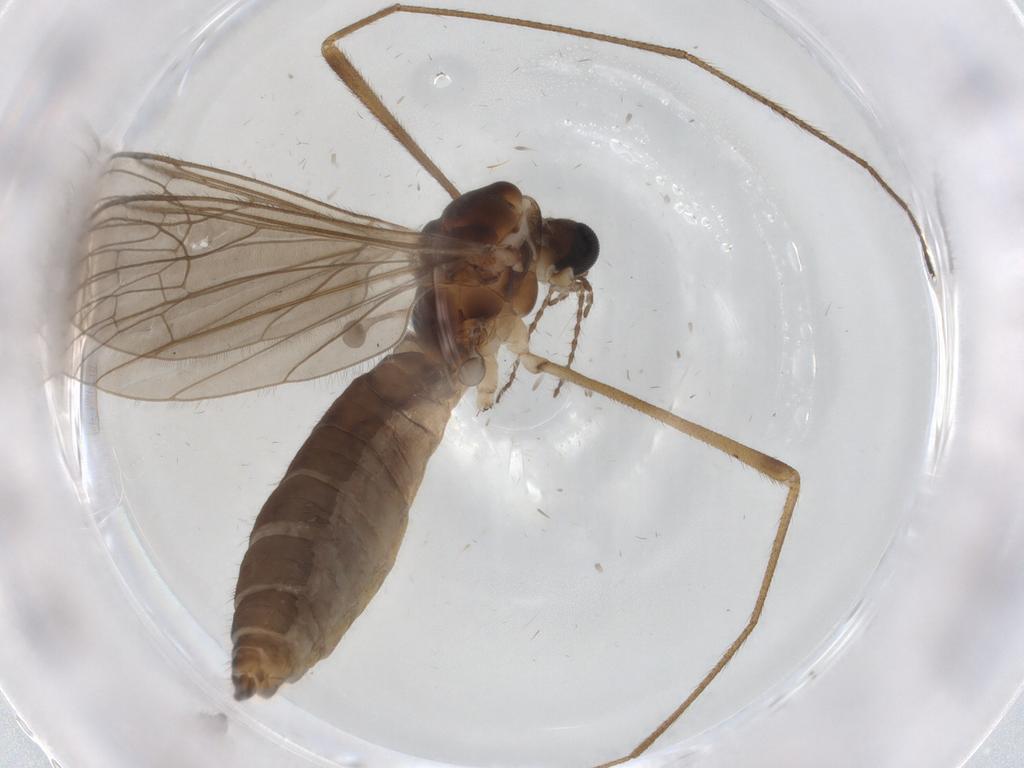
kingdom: Animalia
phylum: Arthropoda
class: Insecta
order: Diptera
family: Limoniidae
